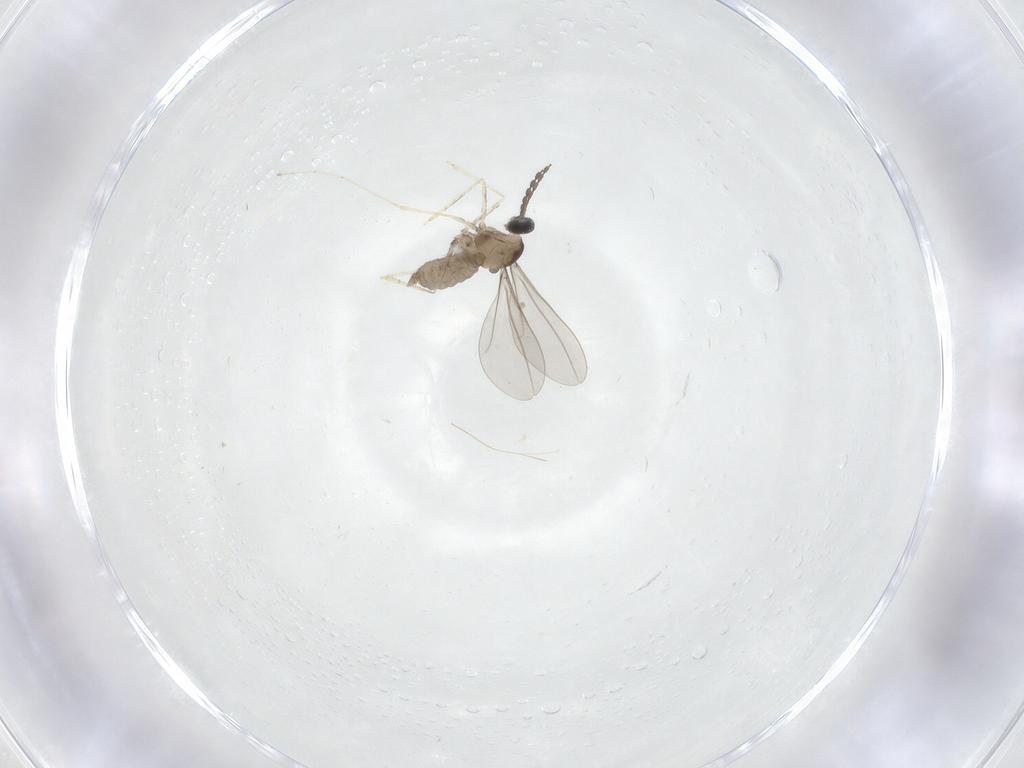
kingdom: Animalia
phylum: Arthropoda
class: Insecta
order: Diptera
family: Cecidomyiidae
